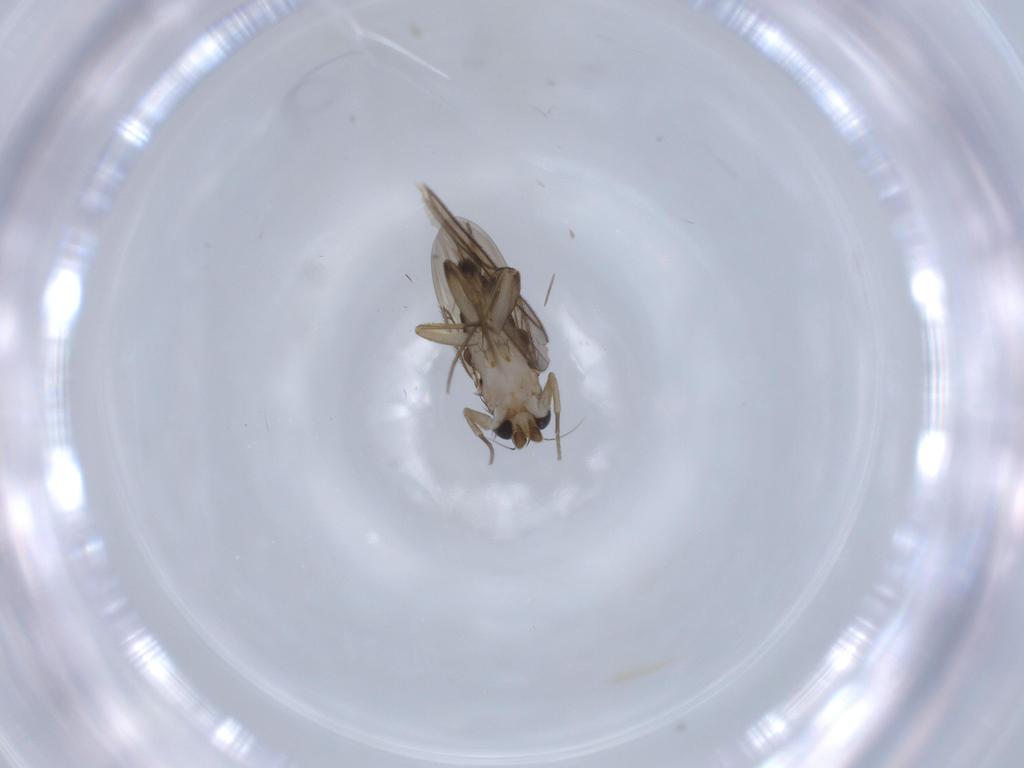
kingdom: Animalia
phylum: Arthropoda
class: Insecta
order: Diptera
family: Phoridae
